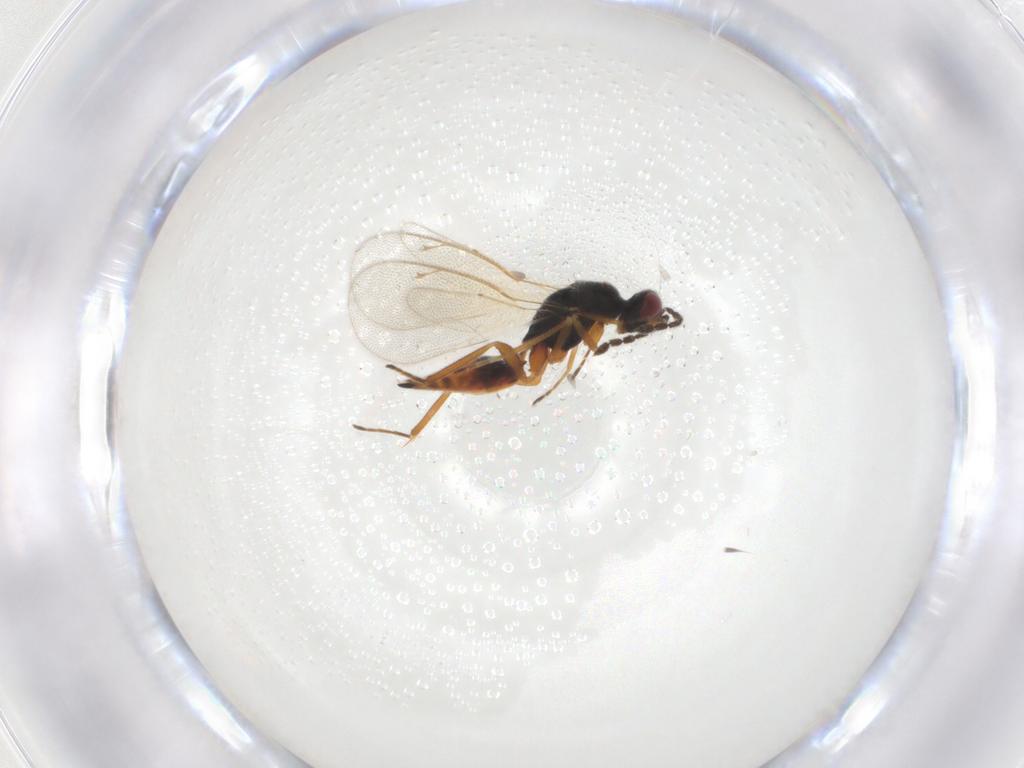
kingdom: Animalia
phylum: Arthropoda
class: Insecta
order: Hymenoptera
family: Eulophidae
